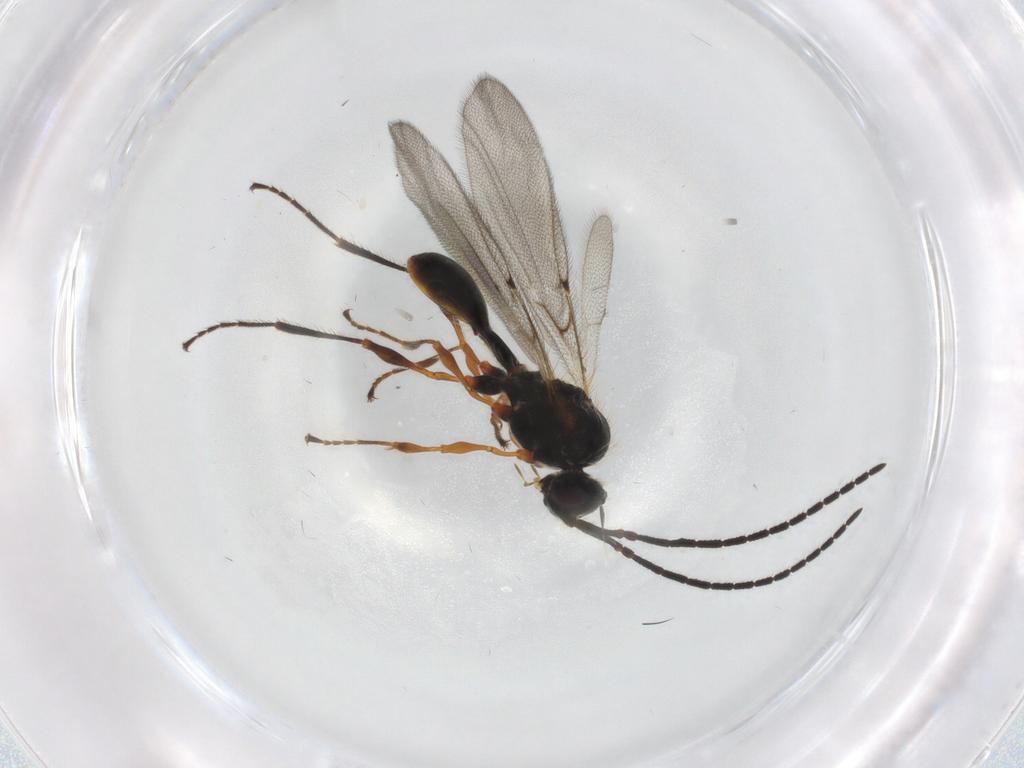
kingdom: Animalia
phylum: Arthropoda
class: Insecta
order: Hymenoptera
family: Diapriidae
